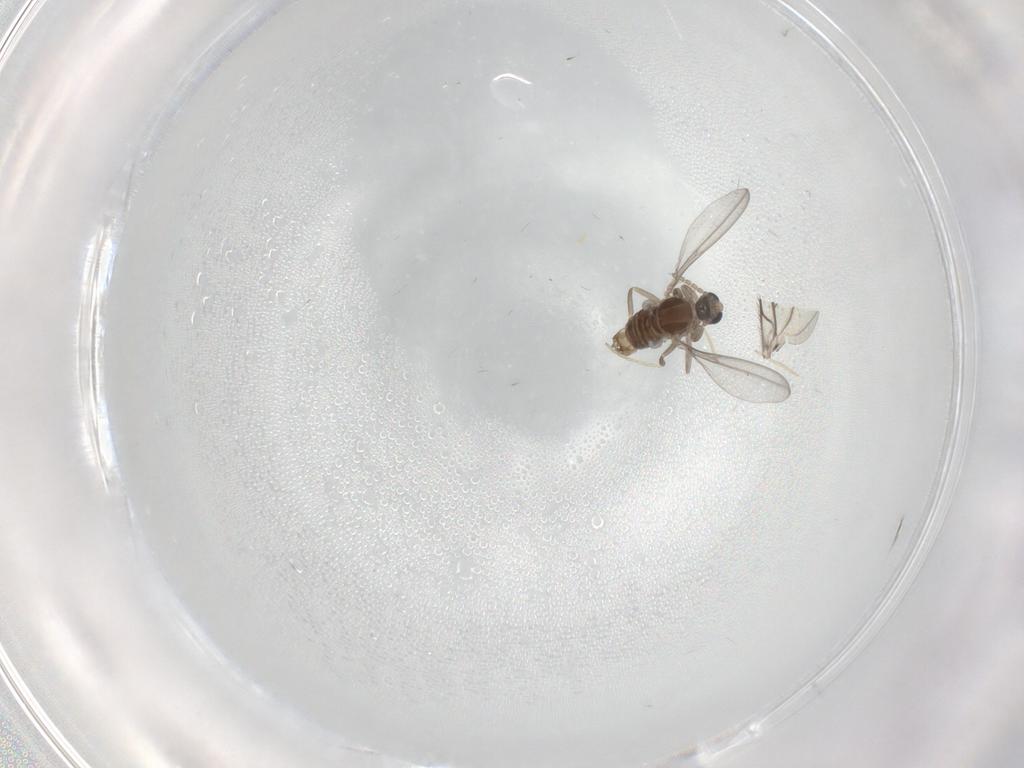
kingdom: Animalia
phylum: Arthropoda
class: Insecta
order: Diptera
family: Cecidomyiidae
